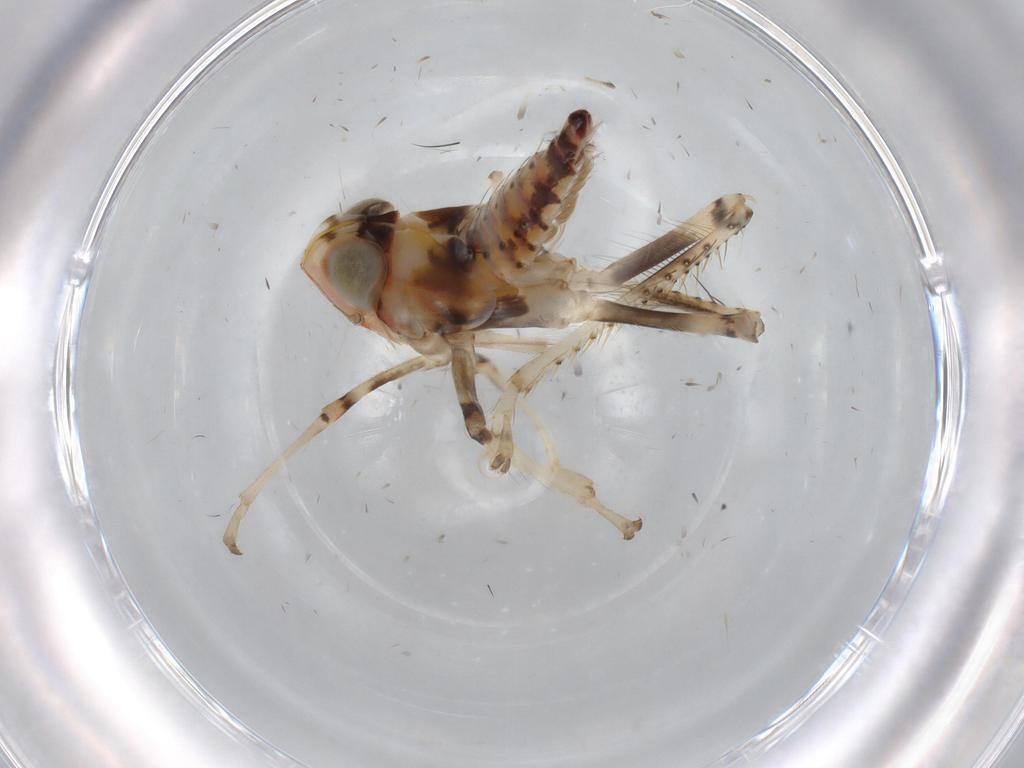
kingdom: Animalia
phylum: Arthropoda
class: Insecta
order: Hemiptera
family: Cicadellidae
